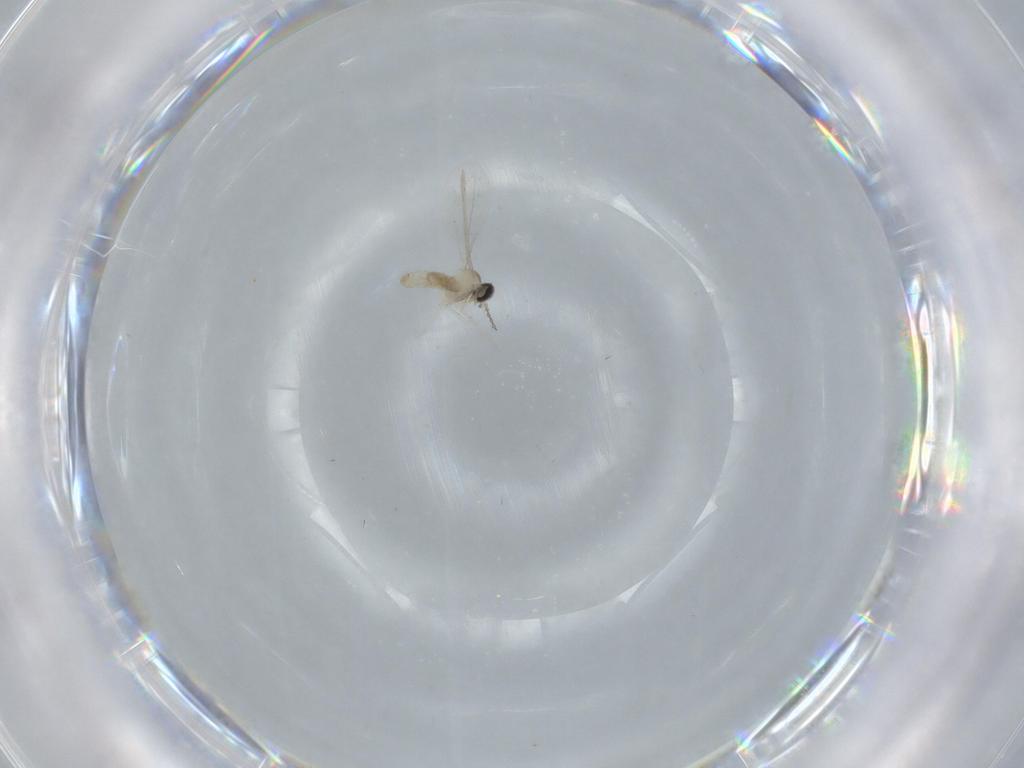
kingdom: Animalia
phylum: Arthropoda
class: Insecta
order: Diptera
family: Cecidomyiidae
